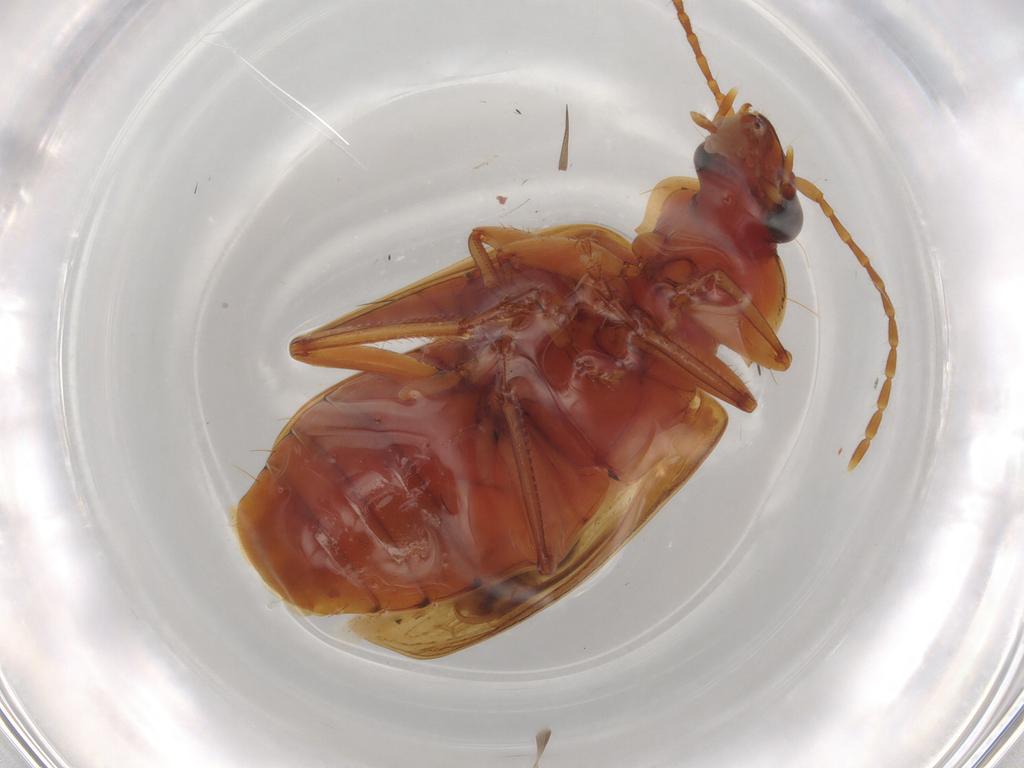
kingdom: Animalia
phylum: Arthropoda
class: Insecta
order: Coleoptera
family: Carabidae
